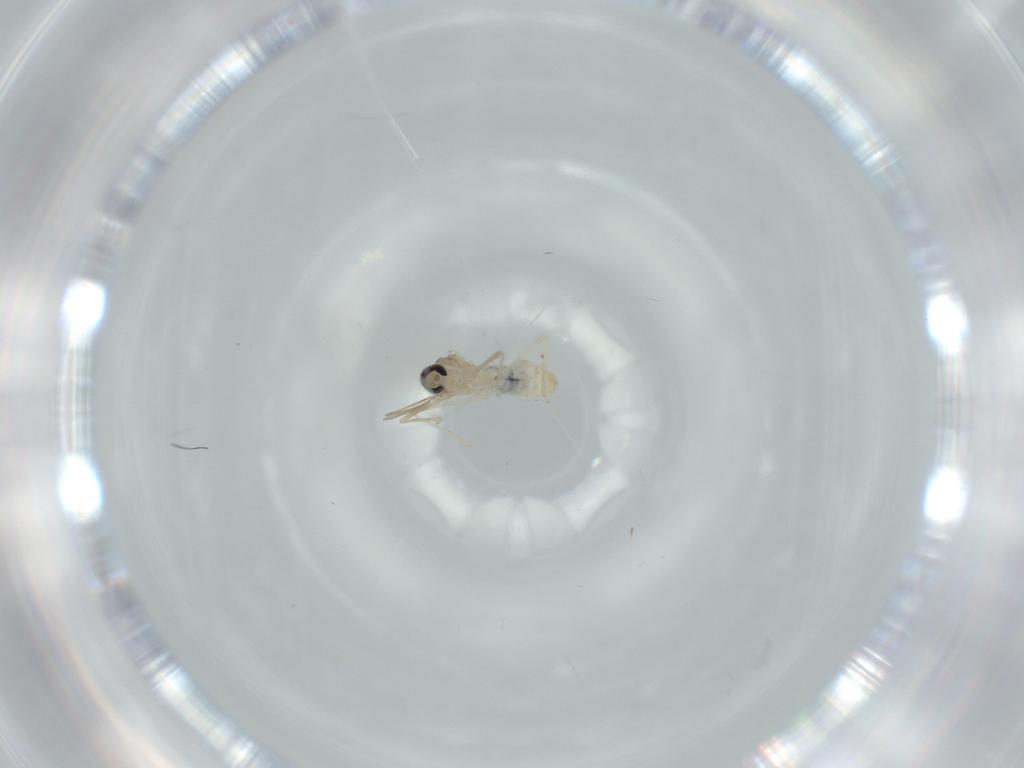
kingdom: Animalia
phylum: Arthropoda
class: Insecta
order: Diptera
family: Cecidomyiidae
